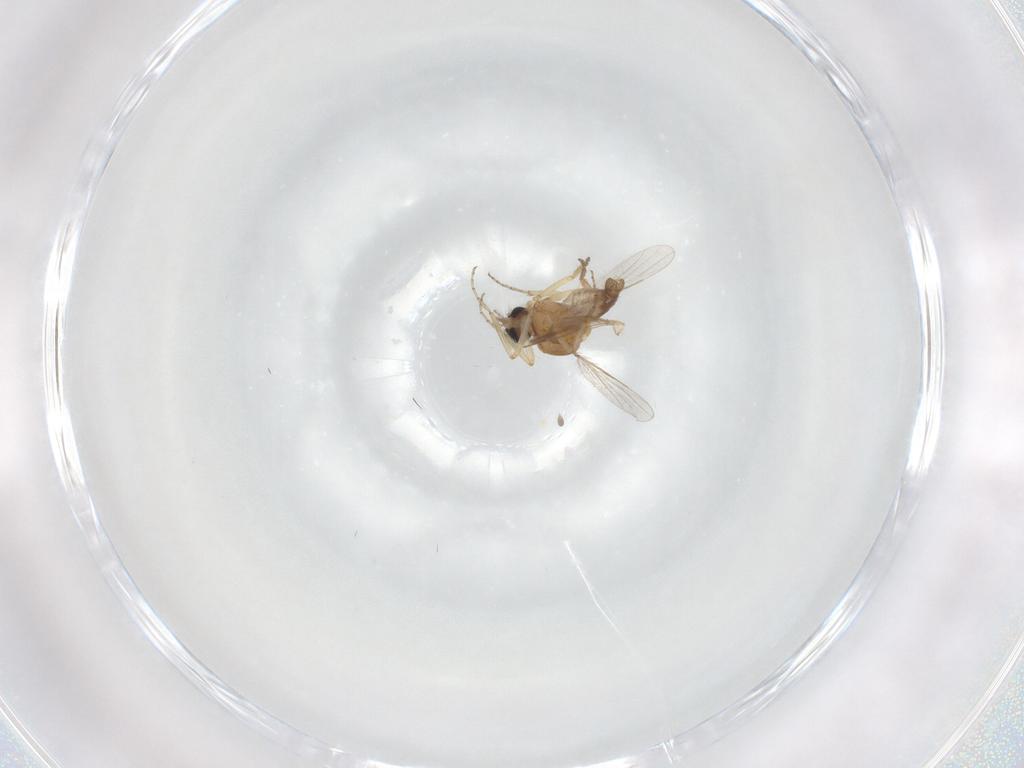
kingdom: Animalia
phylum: Arthropoda
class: Insecta
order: Diptera
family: Ceratopogonidae
